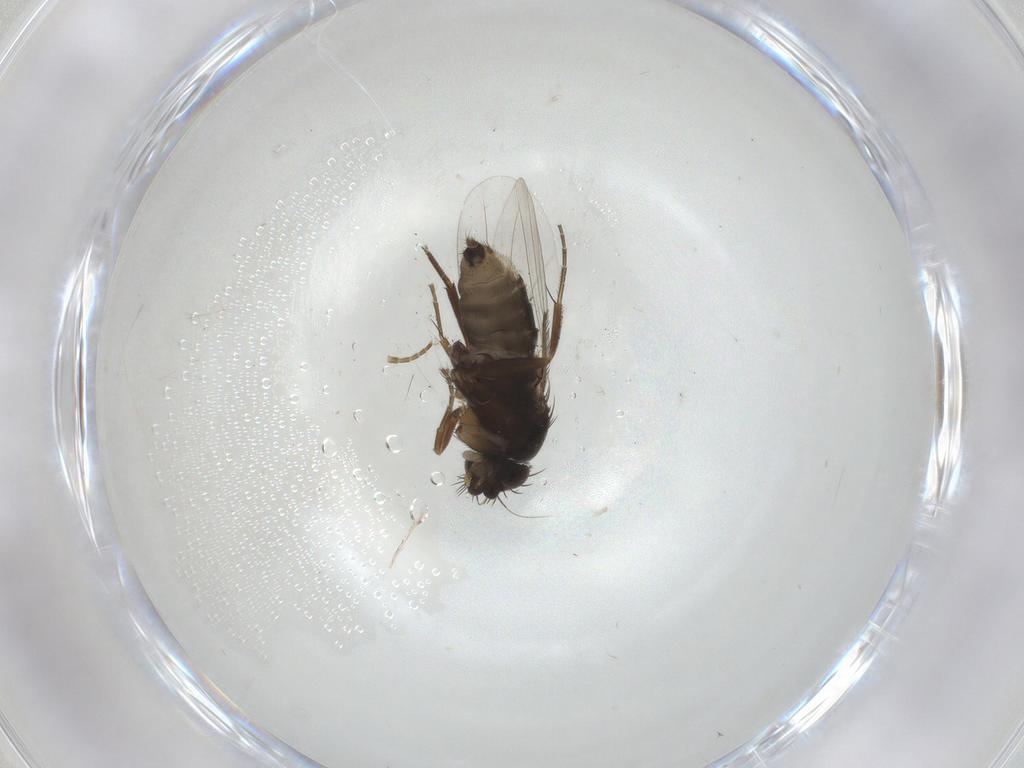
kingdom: Animalia
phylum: Arthropoda
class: Insecta
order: Diptera
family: Phoridae
